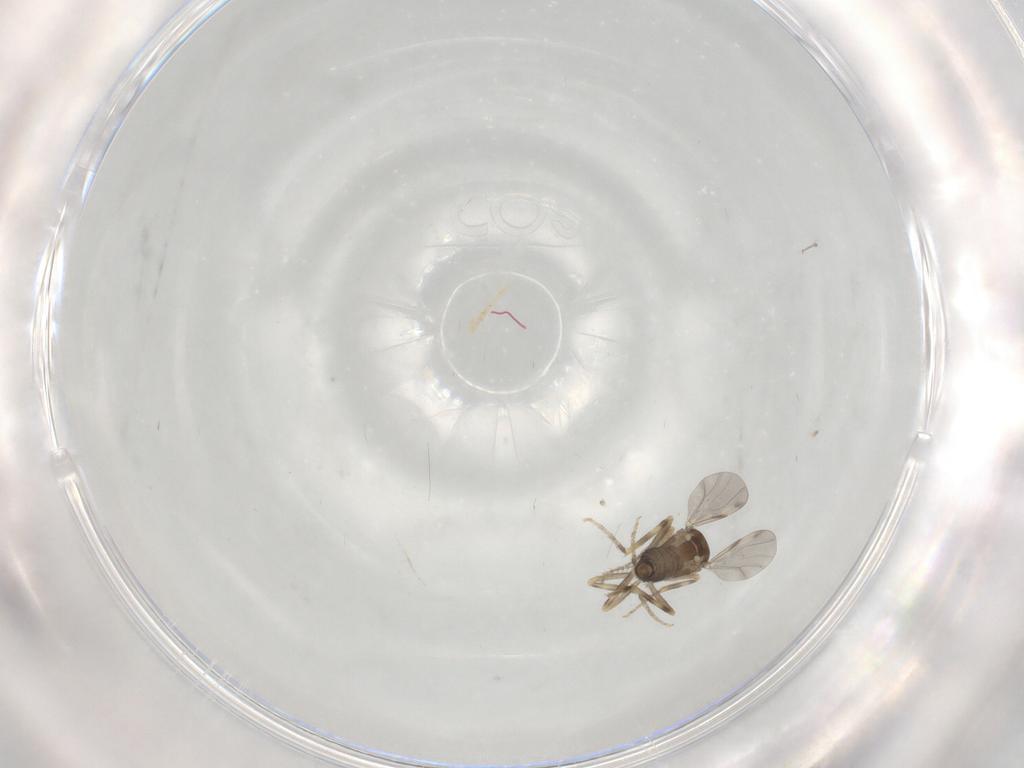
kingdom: Animalia
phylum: Arthropoda
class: Insecta
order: Diptera
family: Ceratopogonidae
